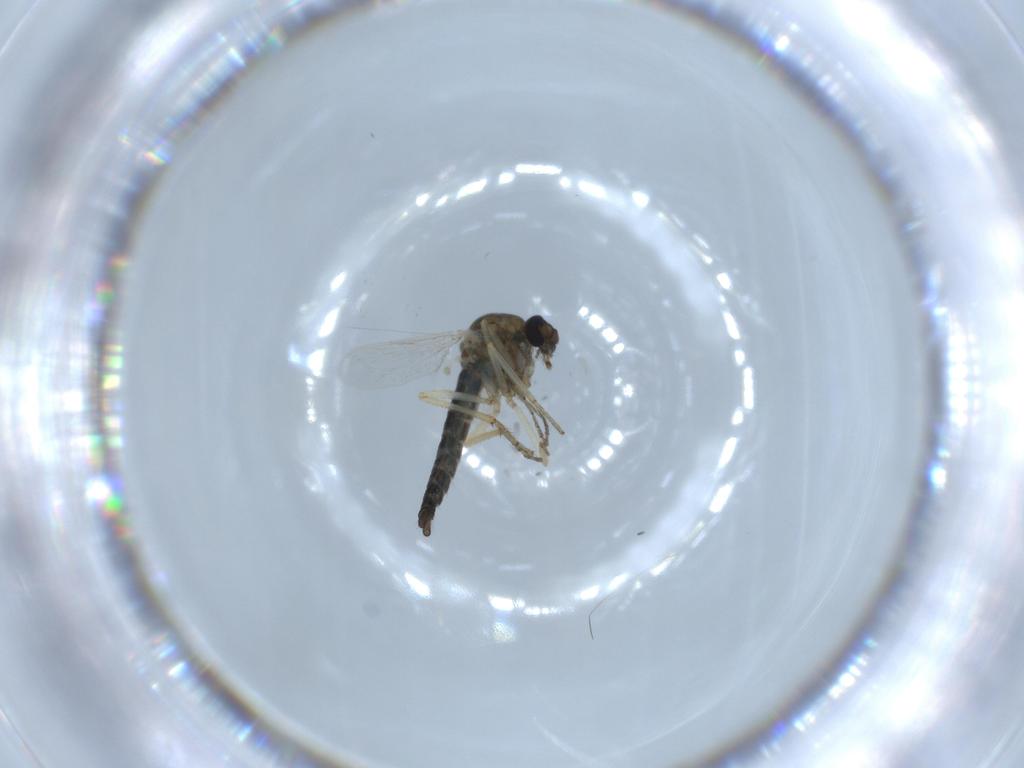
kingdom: Animalia
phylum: Arthropoda
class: Insecta
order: Diptera
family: Ceratopogonidae
